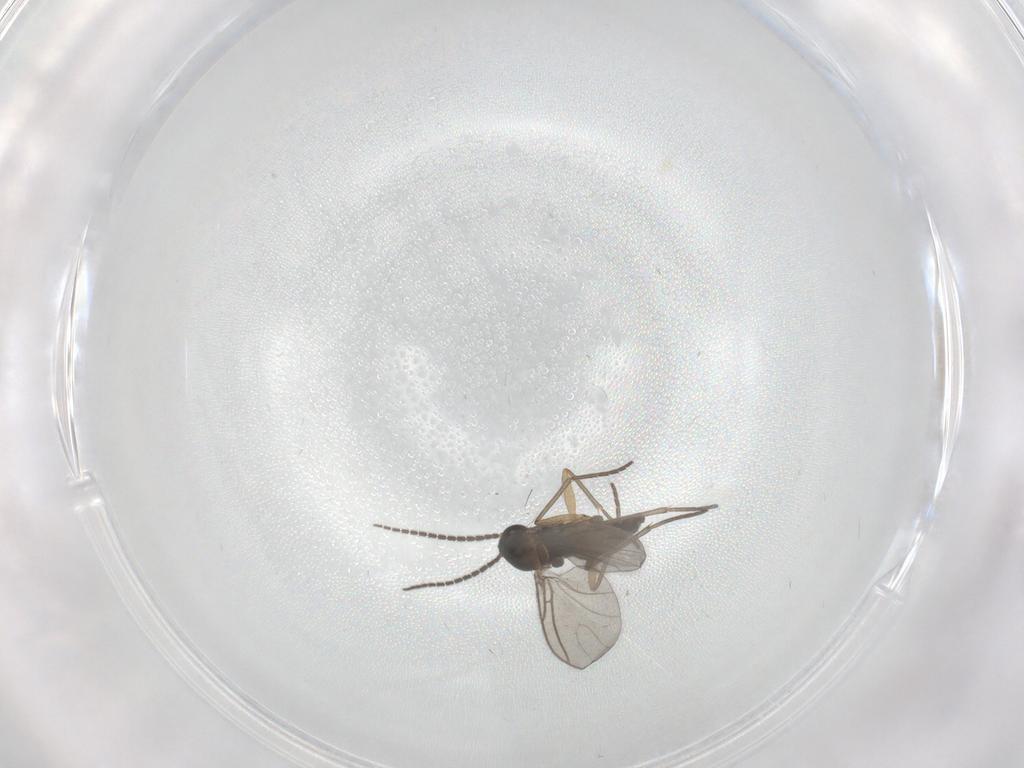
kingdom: Animalia
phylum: Arthropoda
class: Insecta
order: Diptera
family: Sciaridae
